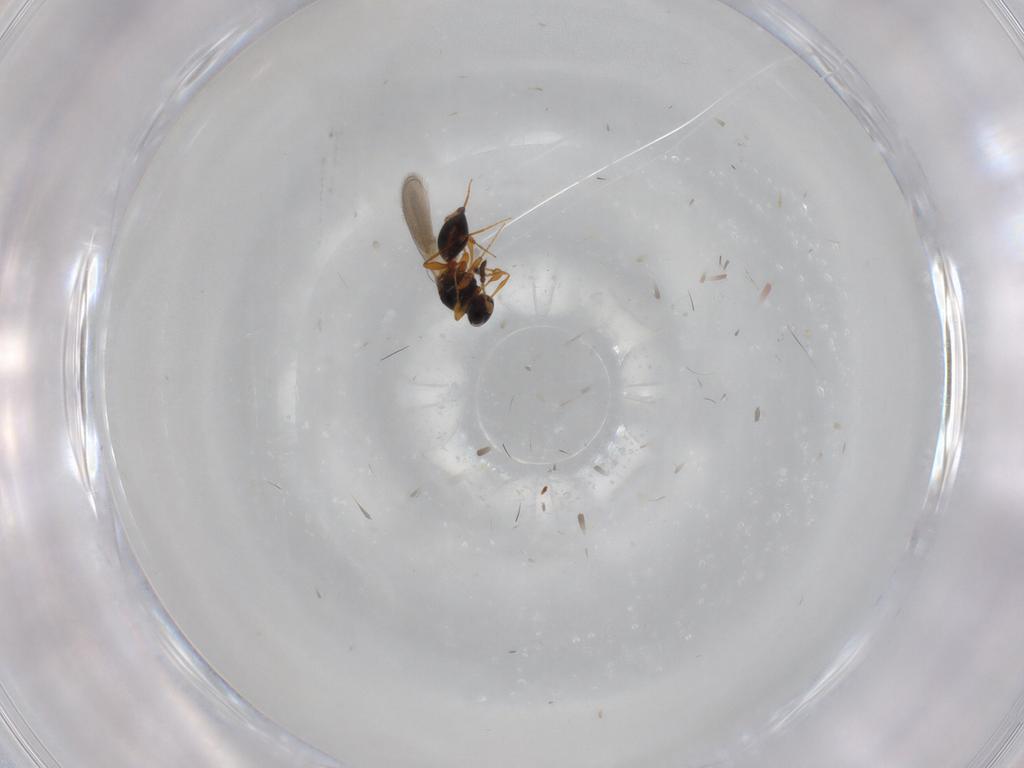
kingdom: Animalia
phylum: Arthropoda
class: Insecta
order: Hymenoptera
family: Platygastridae
